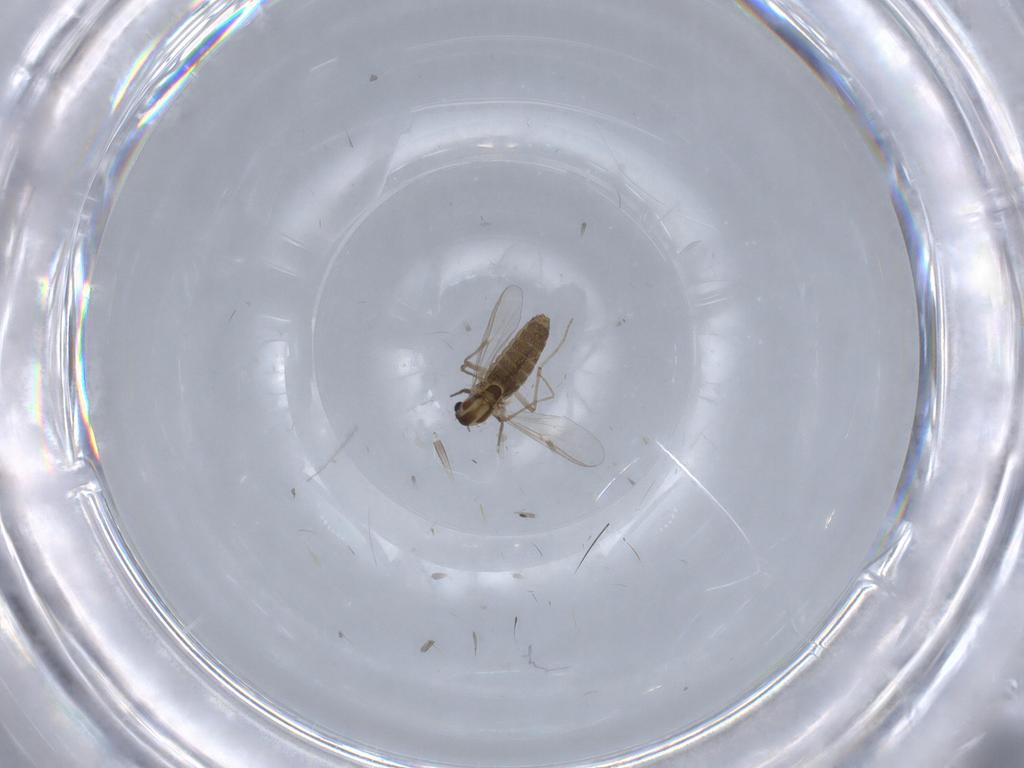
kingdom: Animalia
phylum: Arthropoda
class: Insecta
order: Diptera
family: Chironomidae
